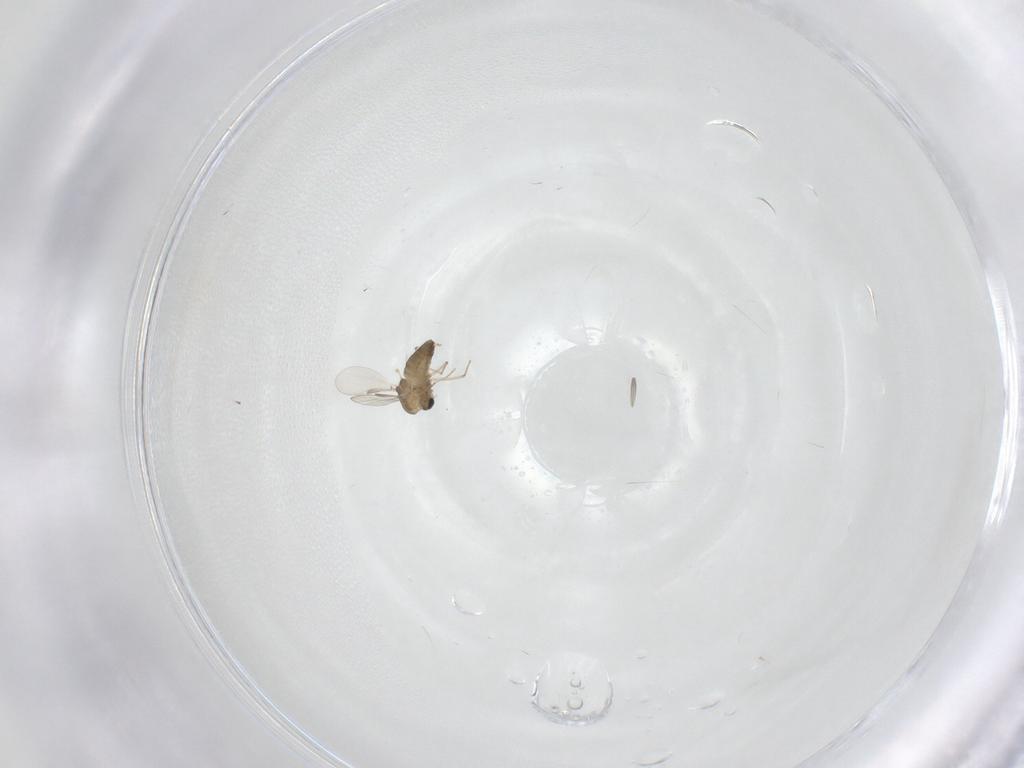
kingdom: Animalia
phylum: Arthropoda
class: Insecta
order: Diptera
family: Chironomidae
